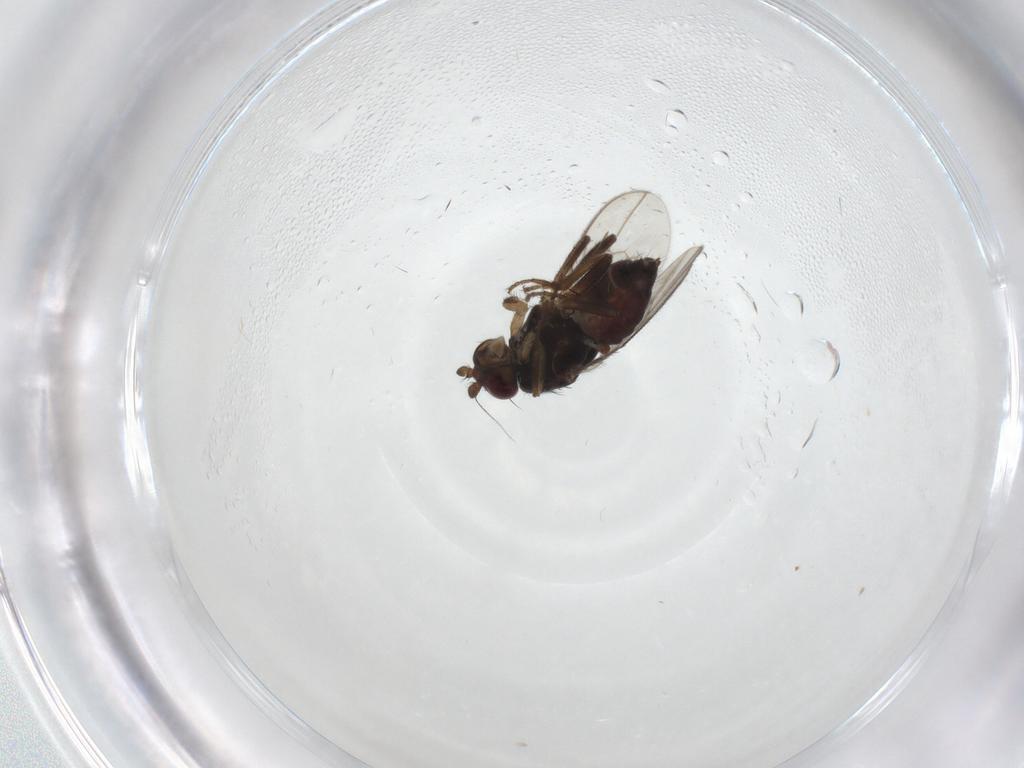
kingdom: Animalia
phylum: Arthropoda
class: Insecta
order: Diptera
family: Sphaeroceridae
